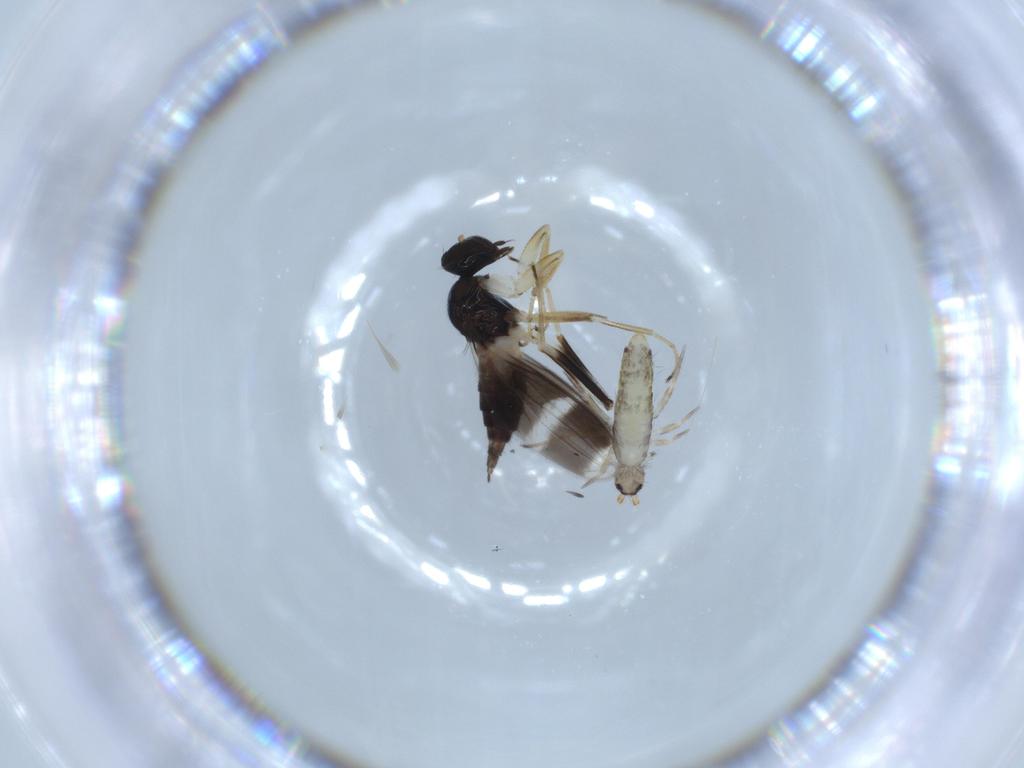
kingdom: Animalia
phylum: Arthropoda
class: Collembola
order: Entomobryomorpha
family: Entomobryidae
